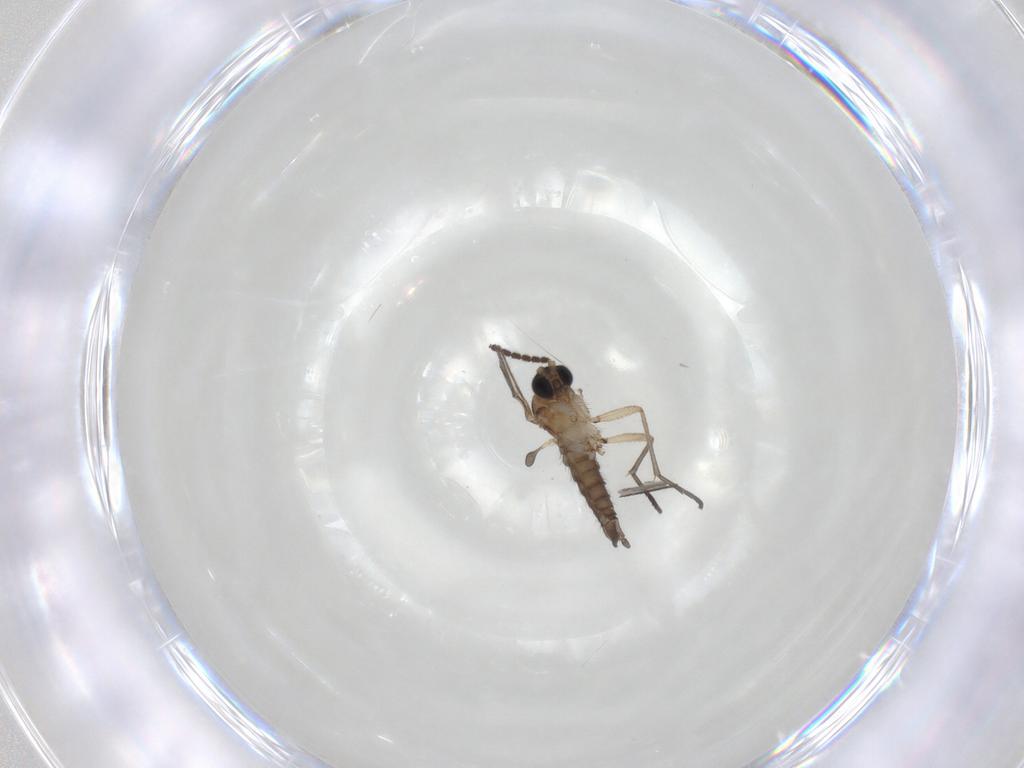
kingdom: Animalia
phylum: Arthropoda
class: Insecta
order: Diptera
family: Sciaridae
